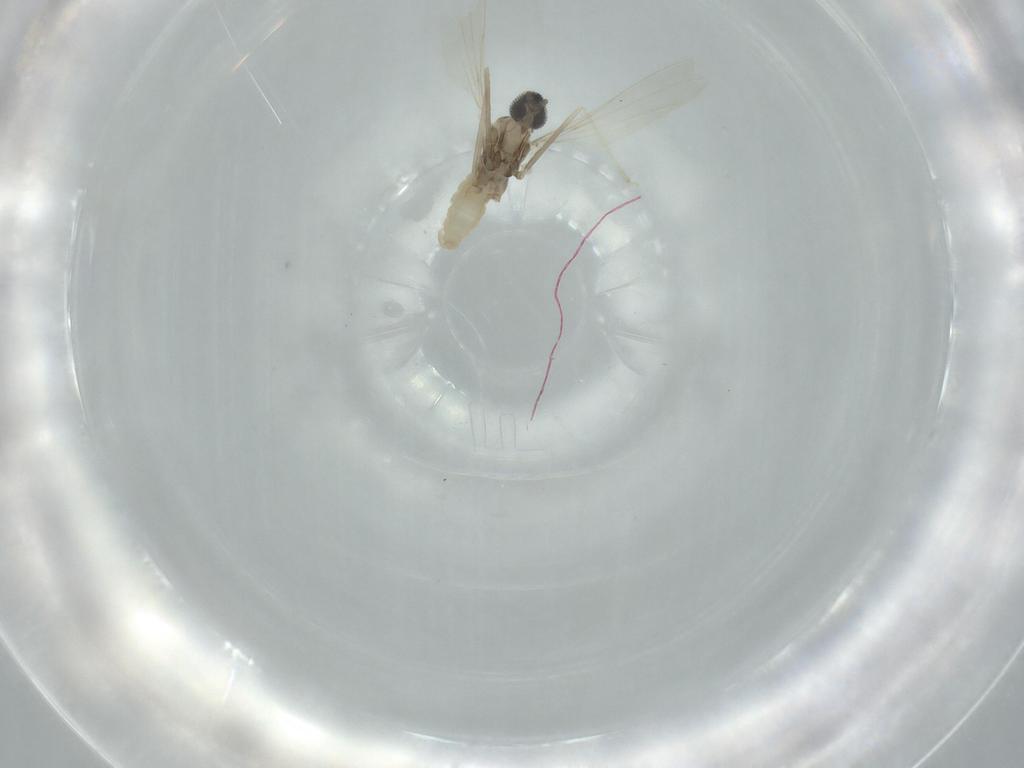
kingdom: Animalia
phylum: Arthropoda
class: Insecta
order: Diptera
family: Cecidomyiidae
